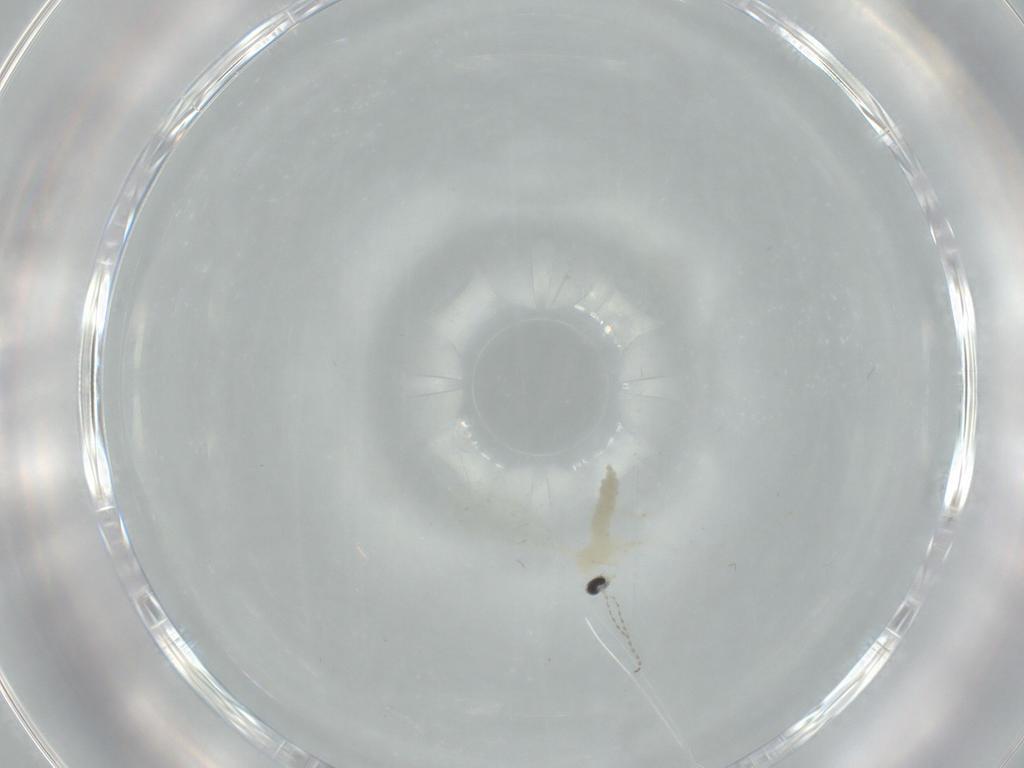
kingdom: Animalia
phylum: Arthropoda
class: Insecta
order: Diptera
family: Cecidomyiidae
